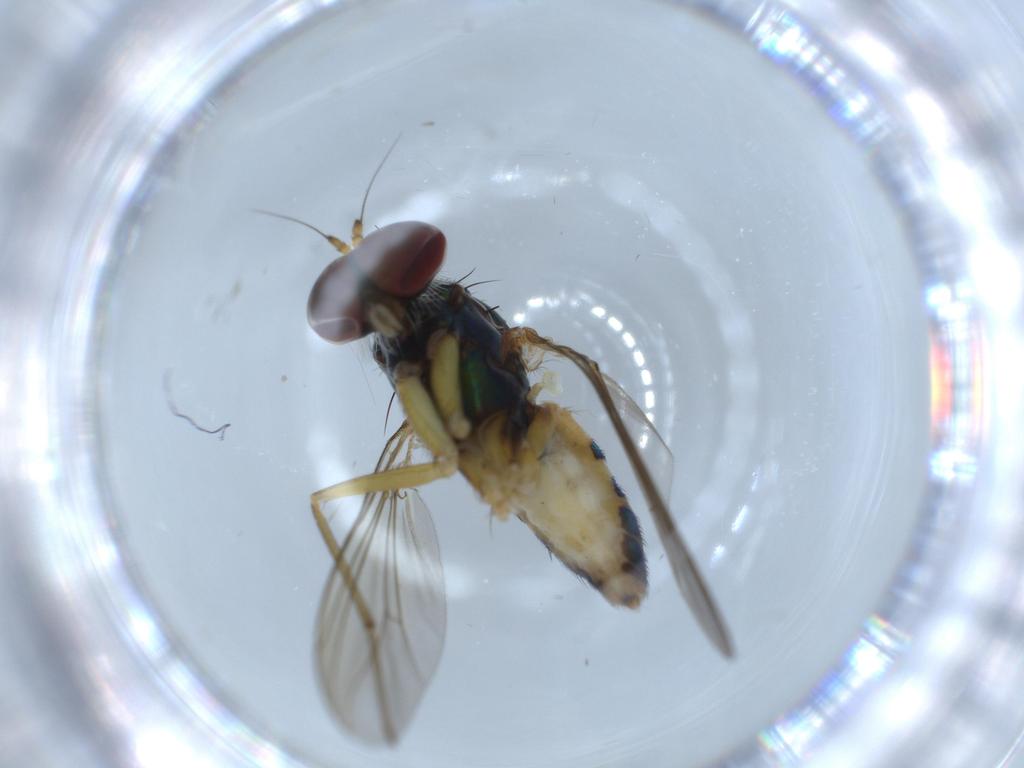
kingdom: Animalia
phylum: Arthropoda
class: Insecta
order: Diptera
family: Dolichopodidae
